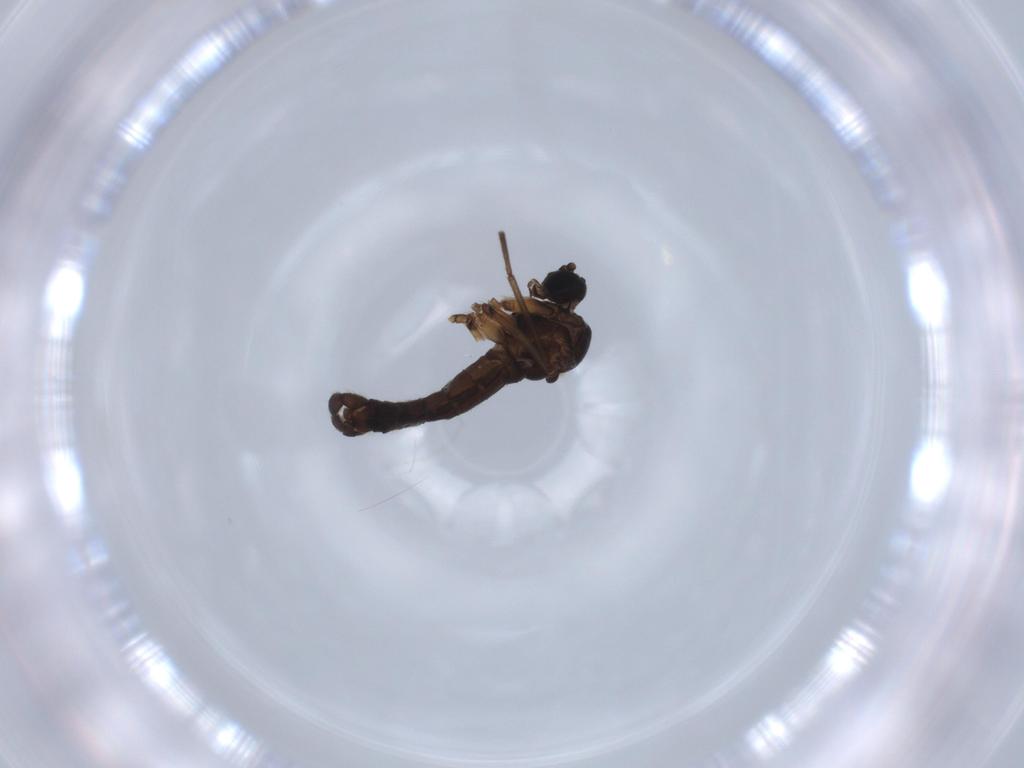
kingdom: Animalia
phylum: Arthropoda
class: Insecta
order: Diptera
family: Sciaridae
